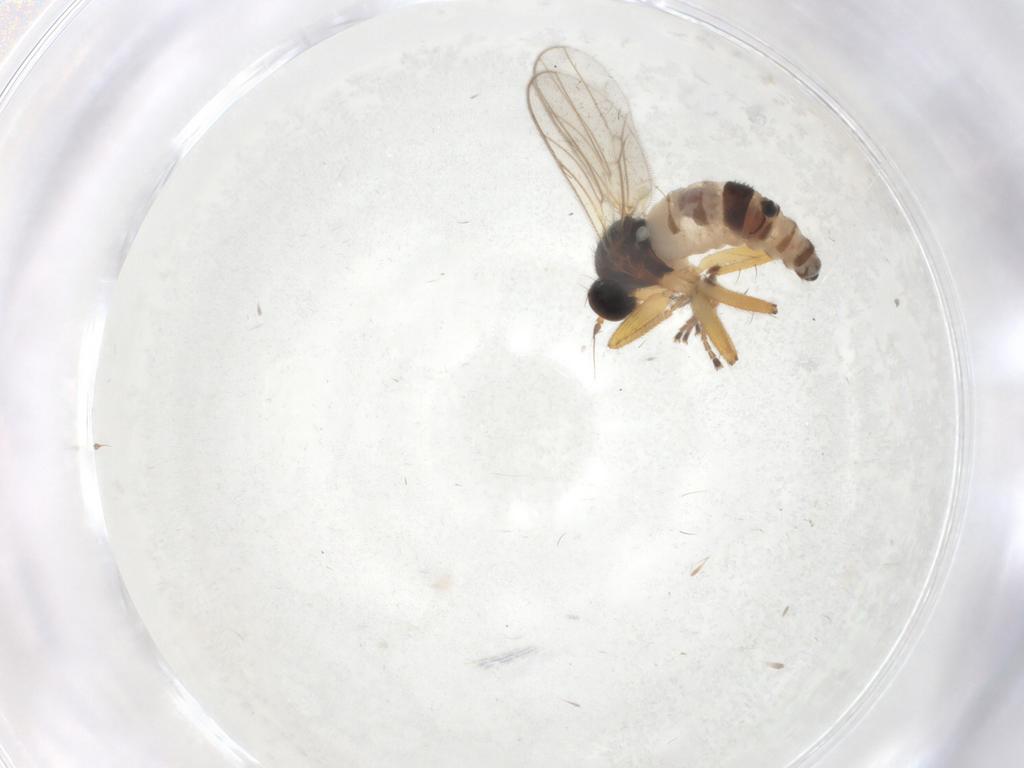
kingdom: Animalia
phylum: Arthropoda
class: Insecta
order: Diptera
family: Hybotidae
